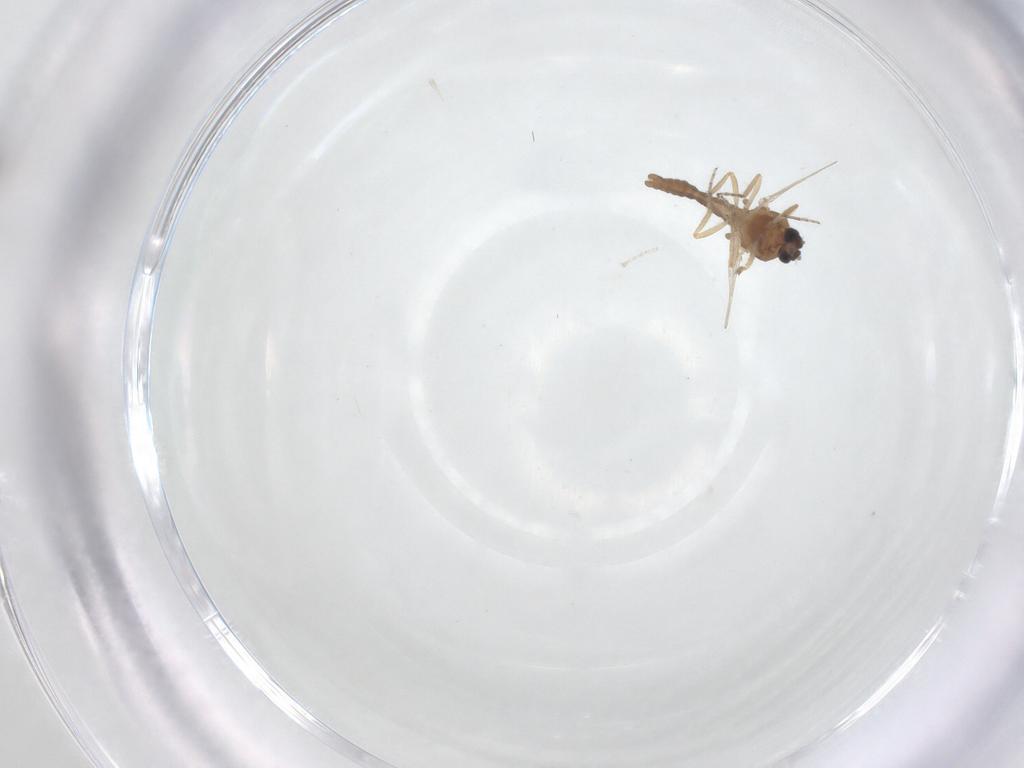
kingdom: Animalia
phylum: Arthropoda
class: Insecta
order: Diptera
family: Ceratopogonidae
